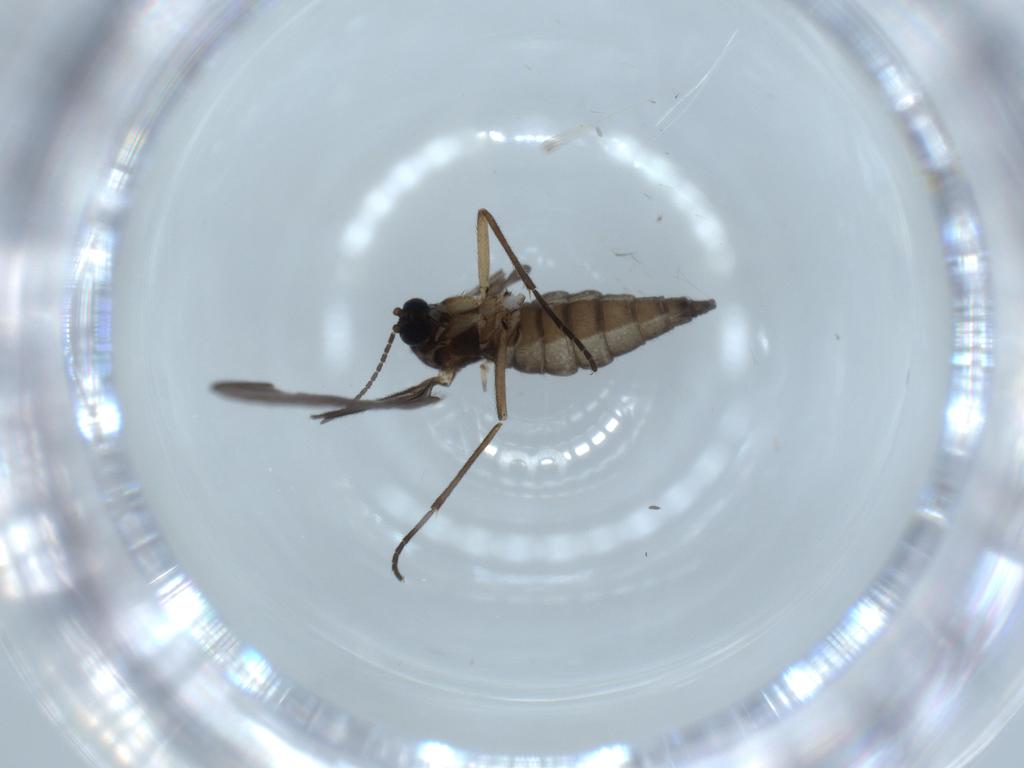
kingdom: Animalia
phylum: Arthropoda
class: Insecta
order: Diptera
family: Sciaridae
